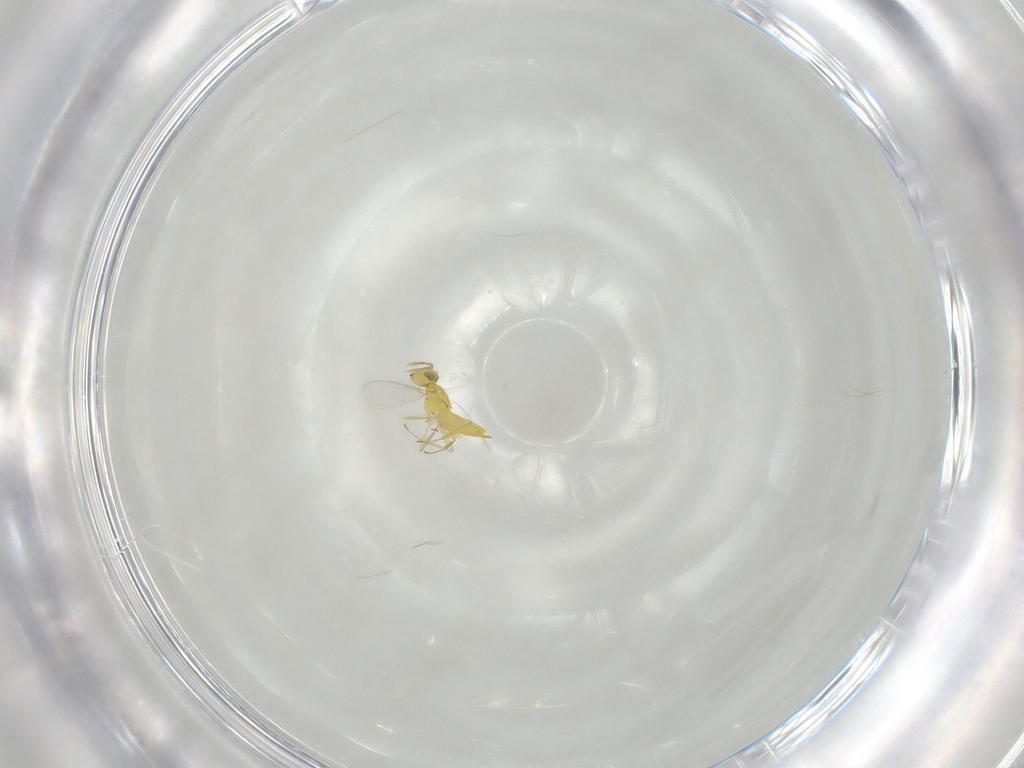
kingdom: Animalia
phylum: Arthropoda
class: Insecta
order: Hymenoptera
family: Aphelinidae
